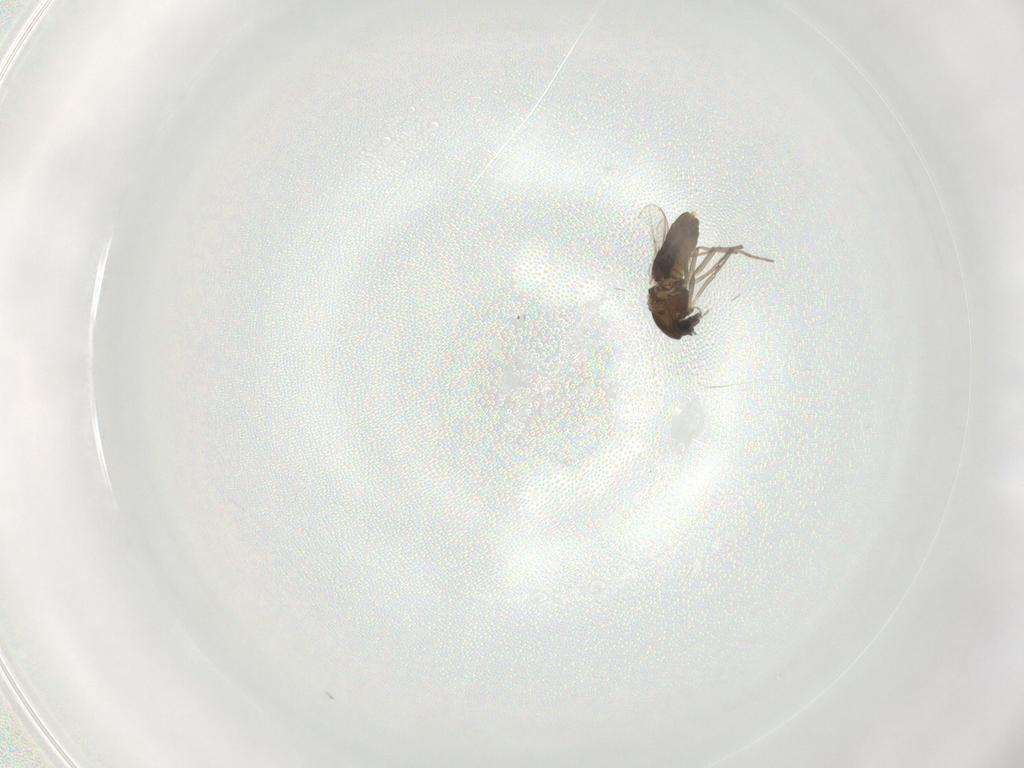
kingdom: Animalia
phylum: Arthropoda
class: Insecta
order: Diptera
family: Chironomidae
